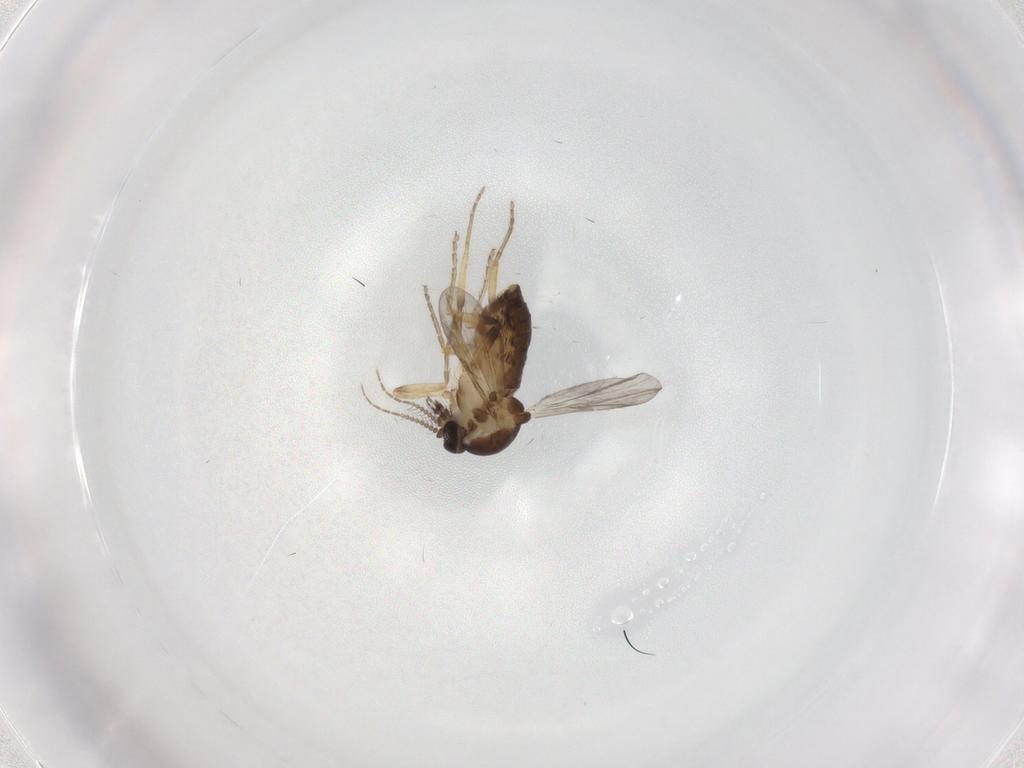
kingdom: Animalia
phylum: Arthropoda
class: Insecta
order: Diptera
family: Ceratopogonidae
